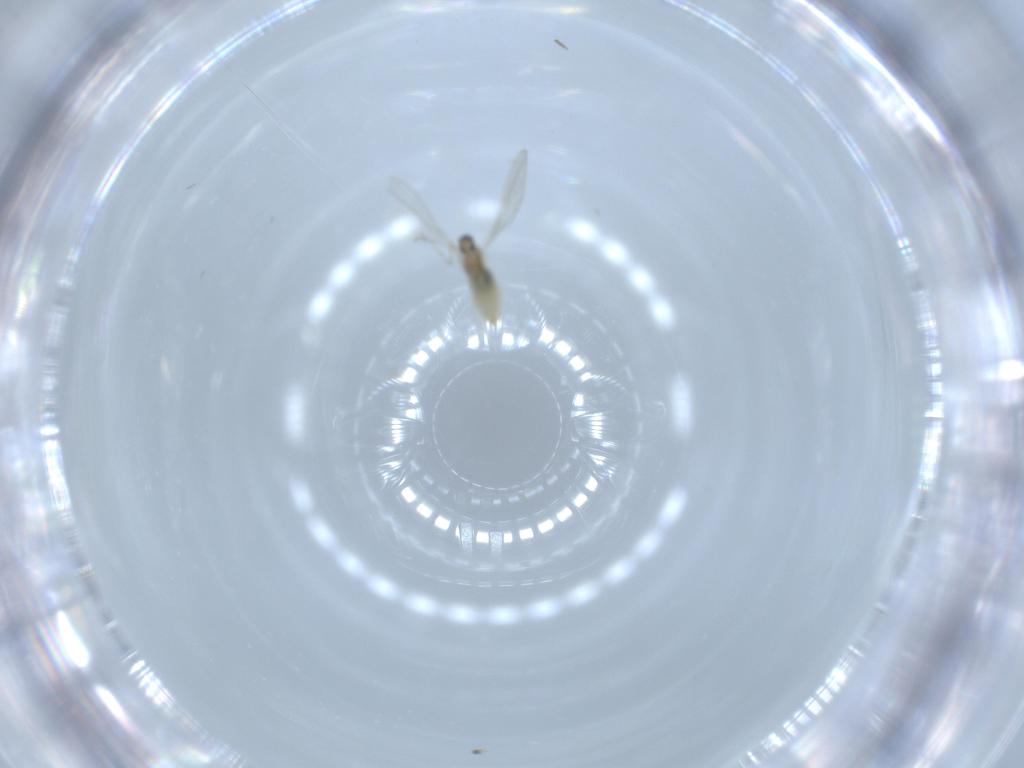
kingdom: Animalia
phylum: Arthropoda
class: Insecta
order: Diptera
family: Cecidomyiidae
